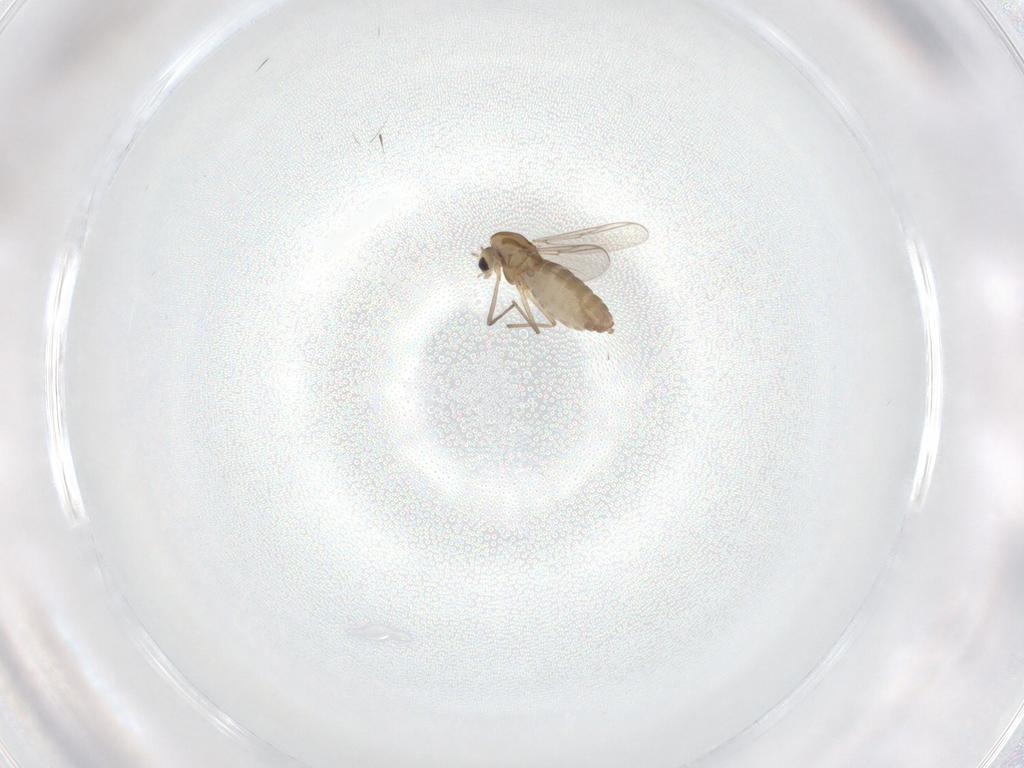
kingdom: Animalia
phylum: Arthropoda
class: Insecta
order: Diptera
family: Chironomidae
